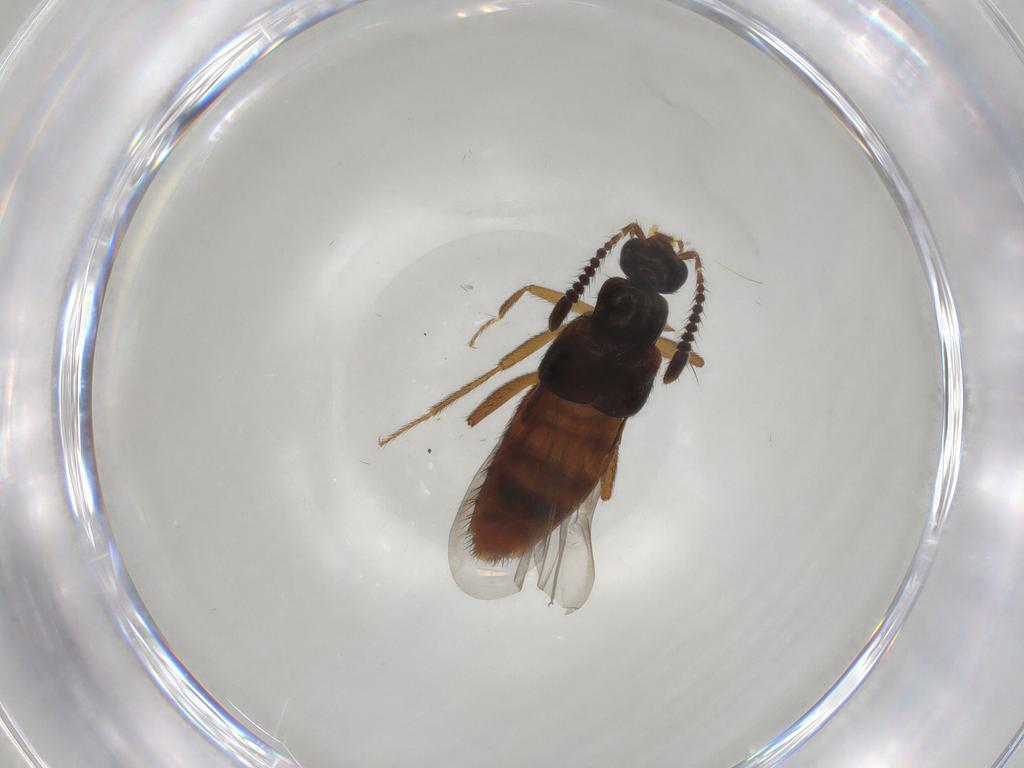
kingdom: Animalia
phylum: Arthropoda
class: Insecta
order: Coleoptera
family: Staphylinidae
